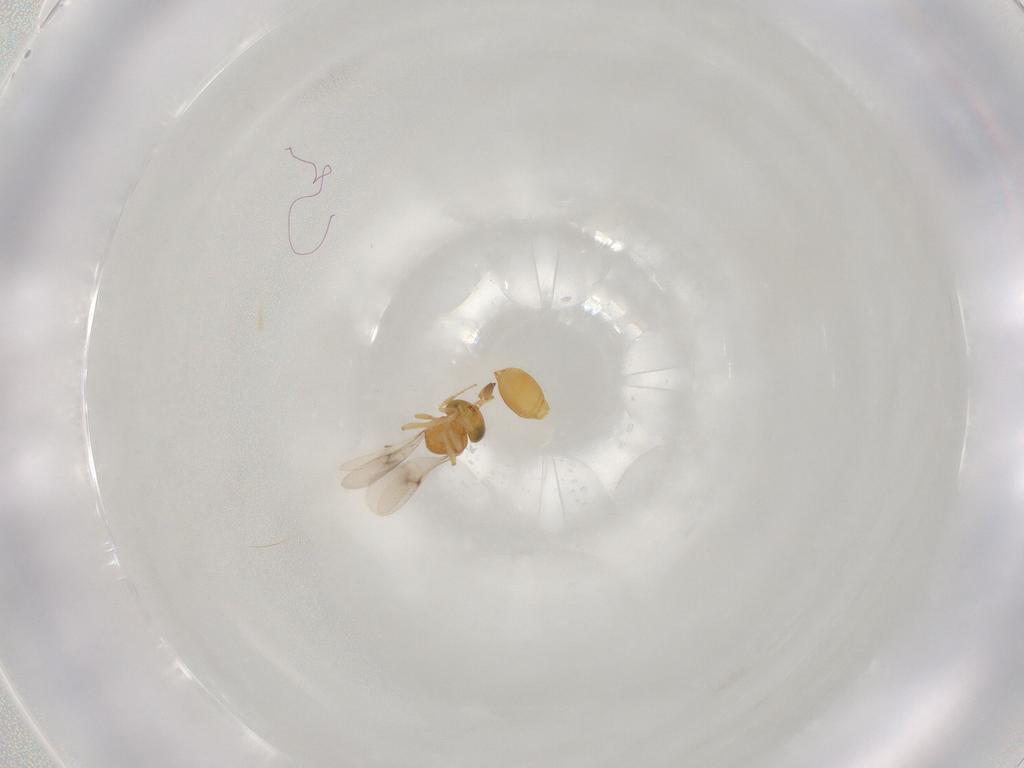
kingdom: Animalia
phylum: Arthropoda
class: Insecta
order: Hymenoptera
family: Scelionidae
